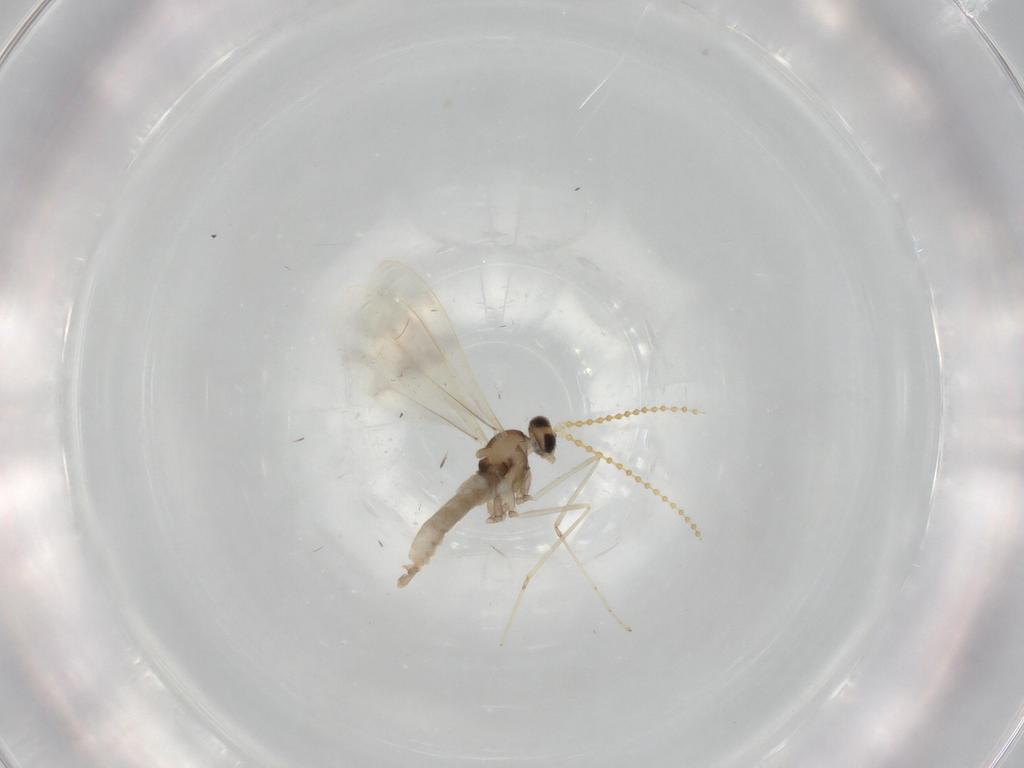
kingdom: Animalia
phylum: Arthropoda
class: Insecta
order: Diptera
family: Cecidomyiidae
